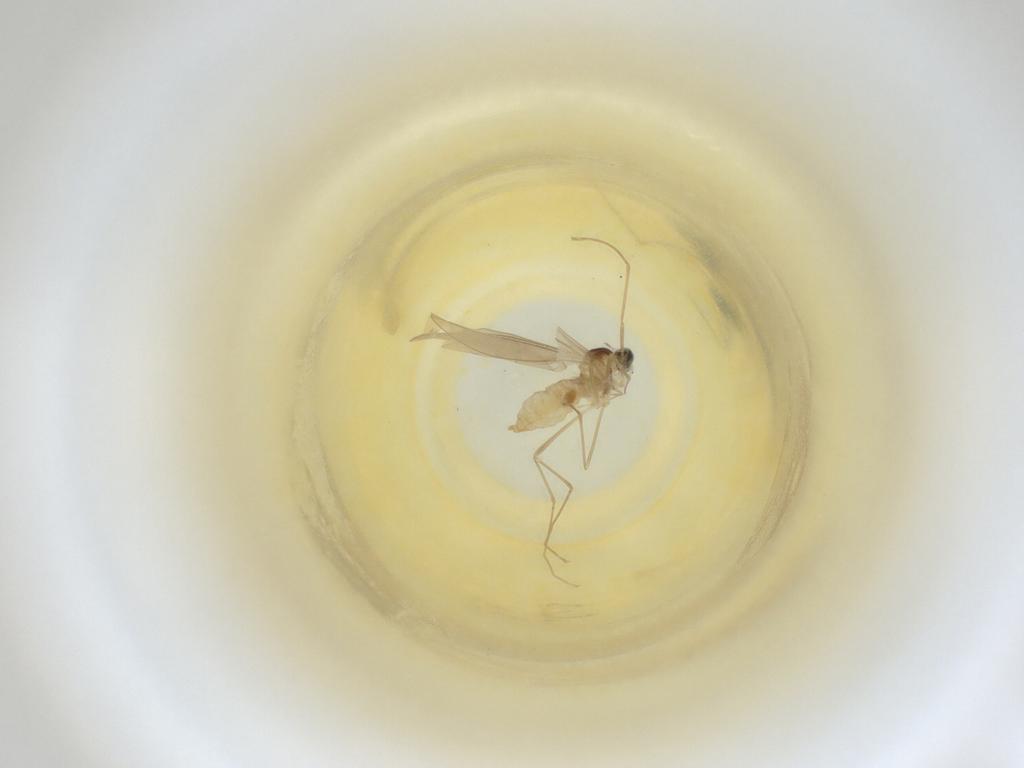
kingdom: Animalia
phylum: Arthropoda
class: Insecta
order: Diptera
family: Cecidomyiidae
